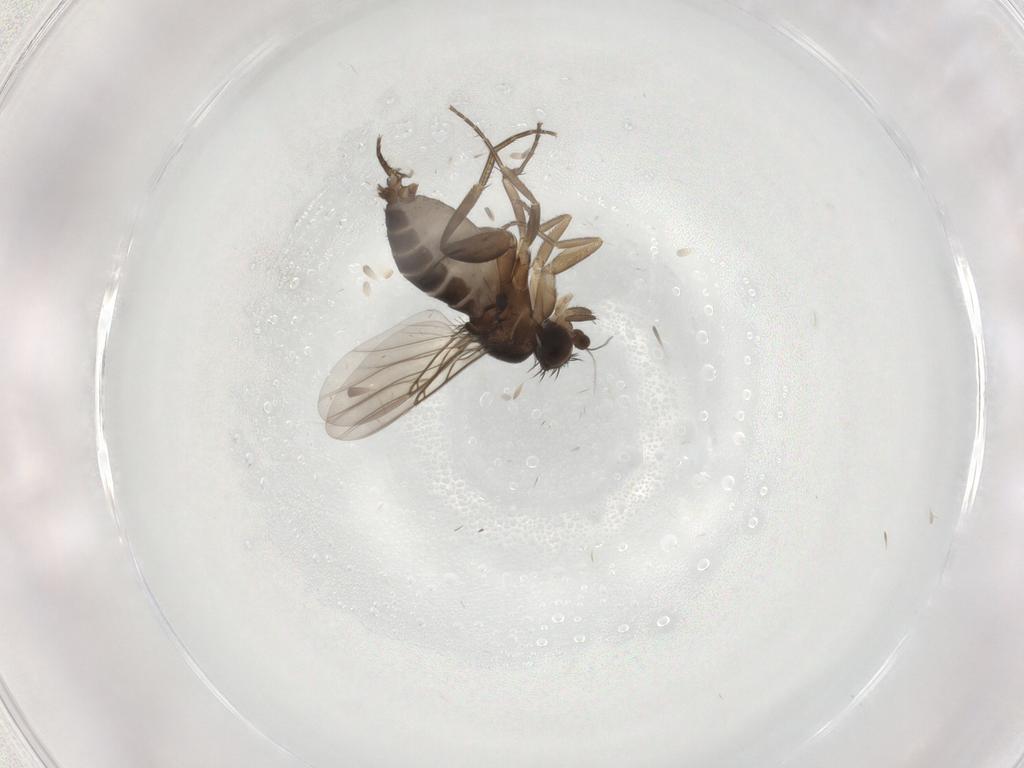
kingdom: Animalia
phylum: Arthropoda
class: Insecta
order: Diptera
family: Phoridae
